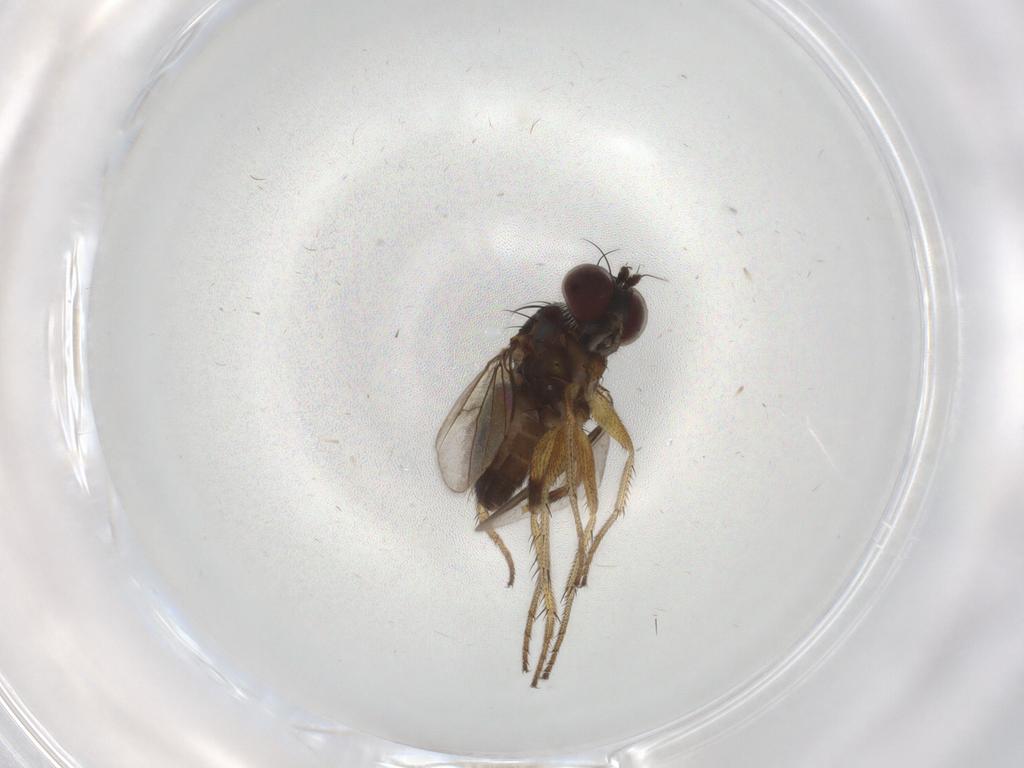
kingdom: Animalia
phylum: Arthropoda
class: Insecta
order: Diptera
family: Dolichopodidae
